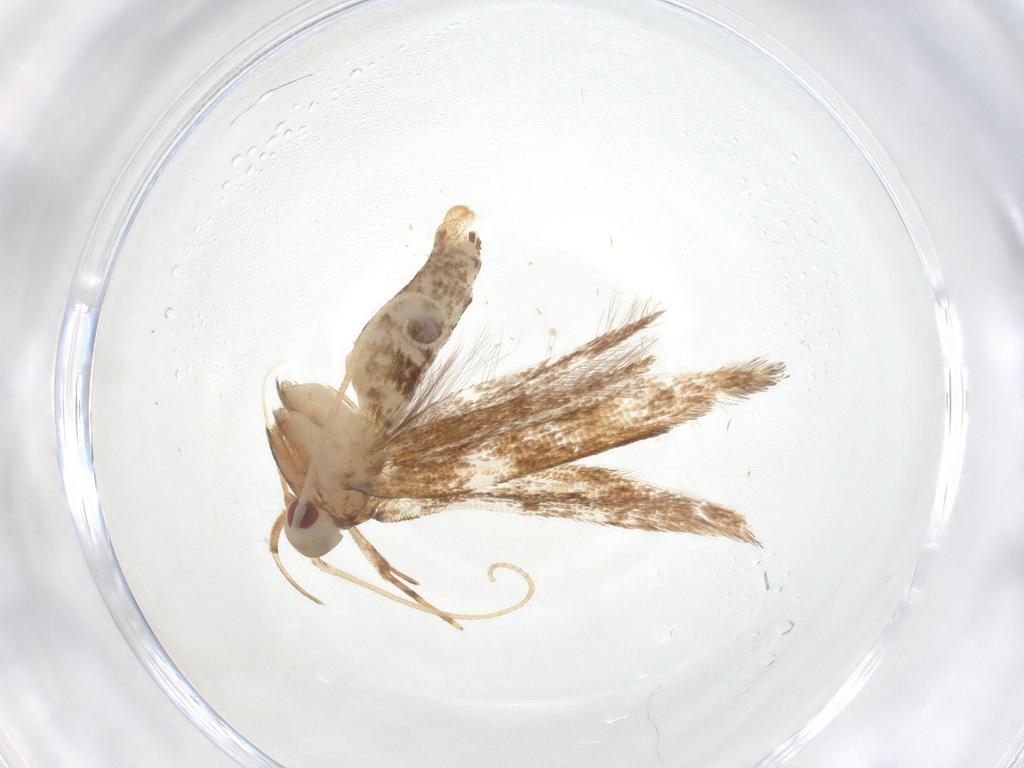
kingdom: Animalia
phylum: Arthropoda
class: Insecta
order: Lepidoptera
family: Cosmopterigidae
